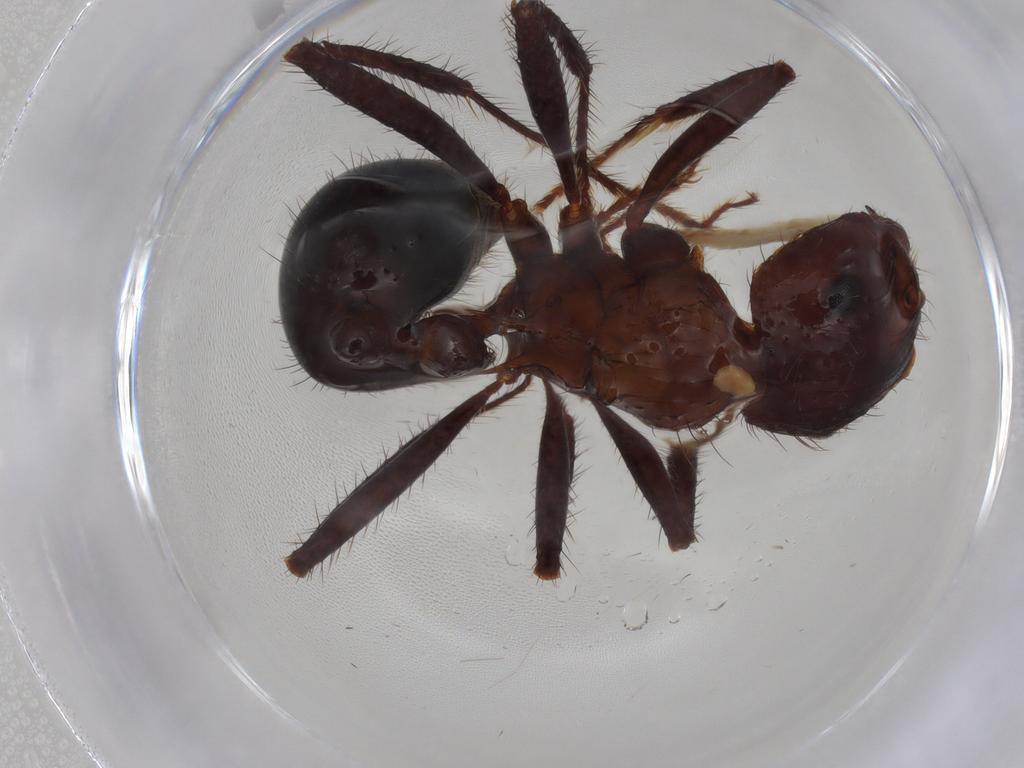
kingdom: Animalia
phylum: Arthropoda
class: Insecta
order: Hymenoptera
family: Formicidae
